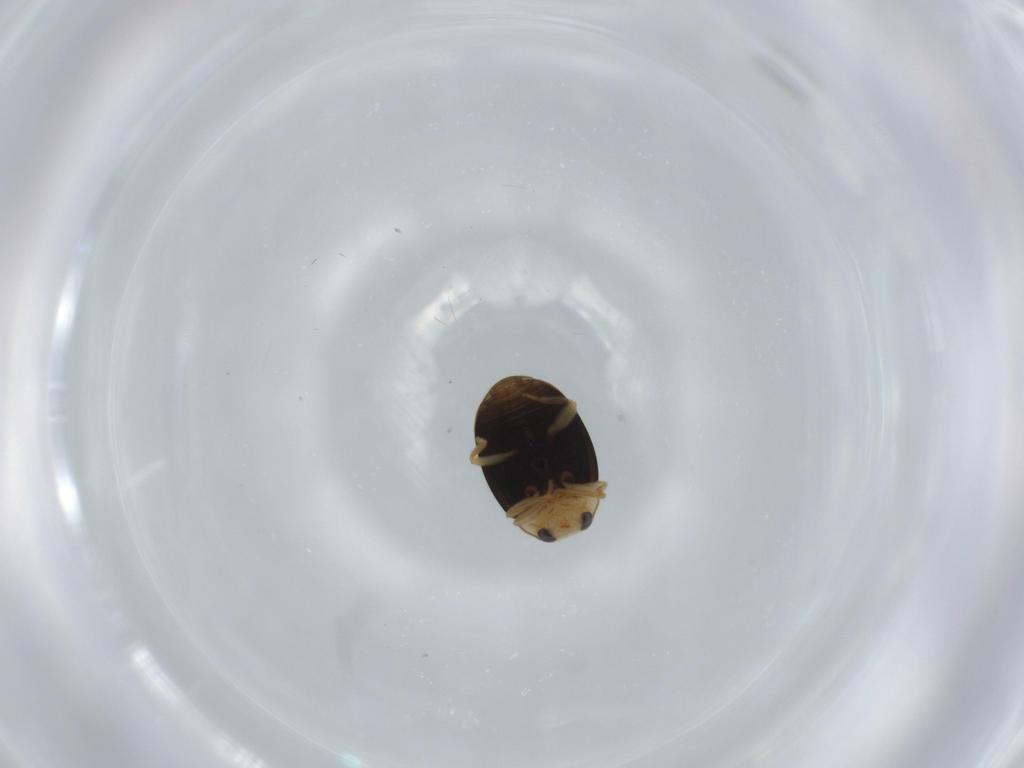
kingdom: Animalia
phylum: Arthropoda
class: Insecta
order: Coleoptera
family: Coccinellidae
